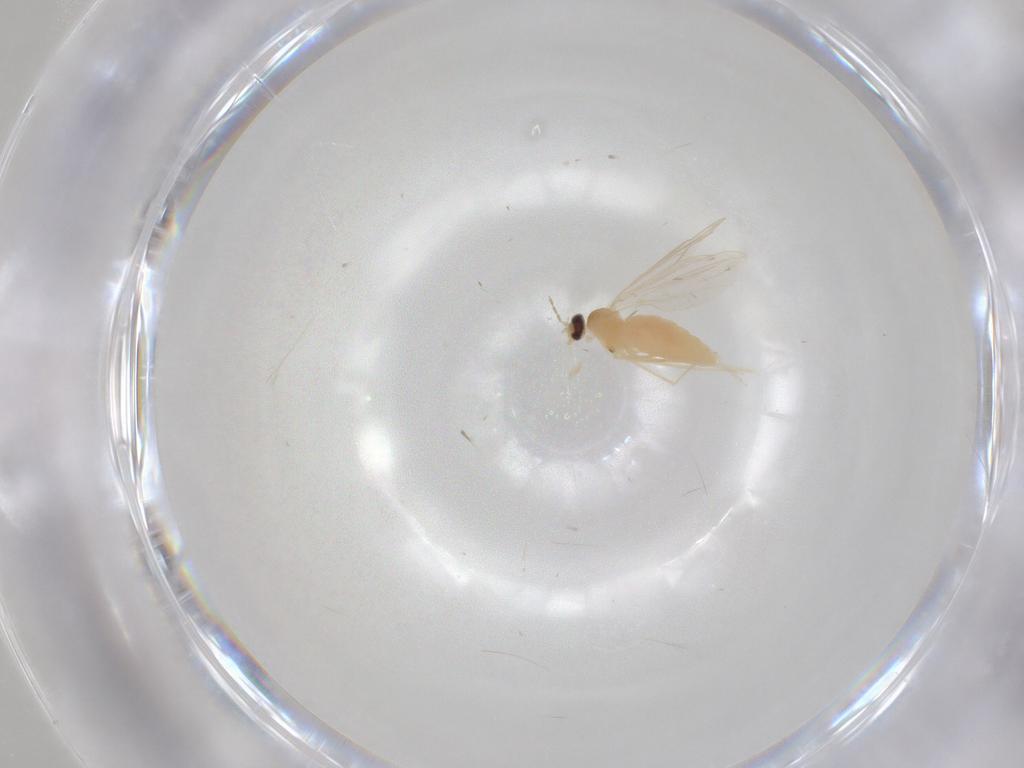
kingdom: Animalia
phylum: Arthropoda
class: Insecta
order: Diptera
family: Cecidomyiidae
